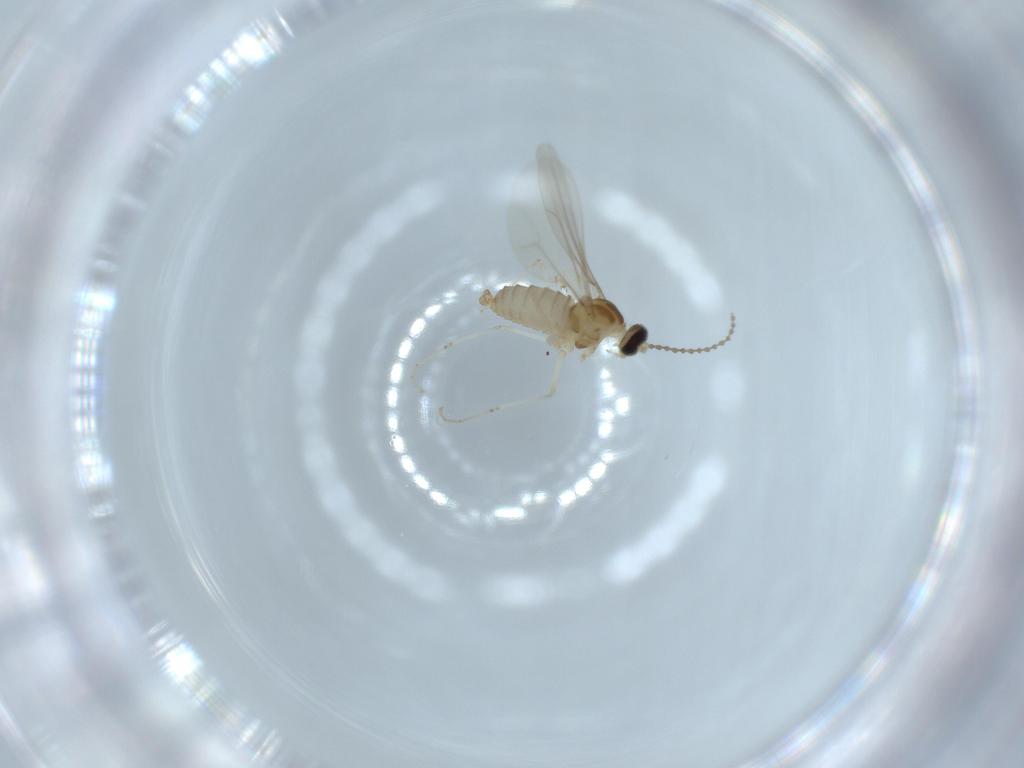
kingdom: Animalia
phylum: Arthropoda
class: Insecta
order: Diptera
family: Cecidomyiidae
